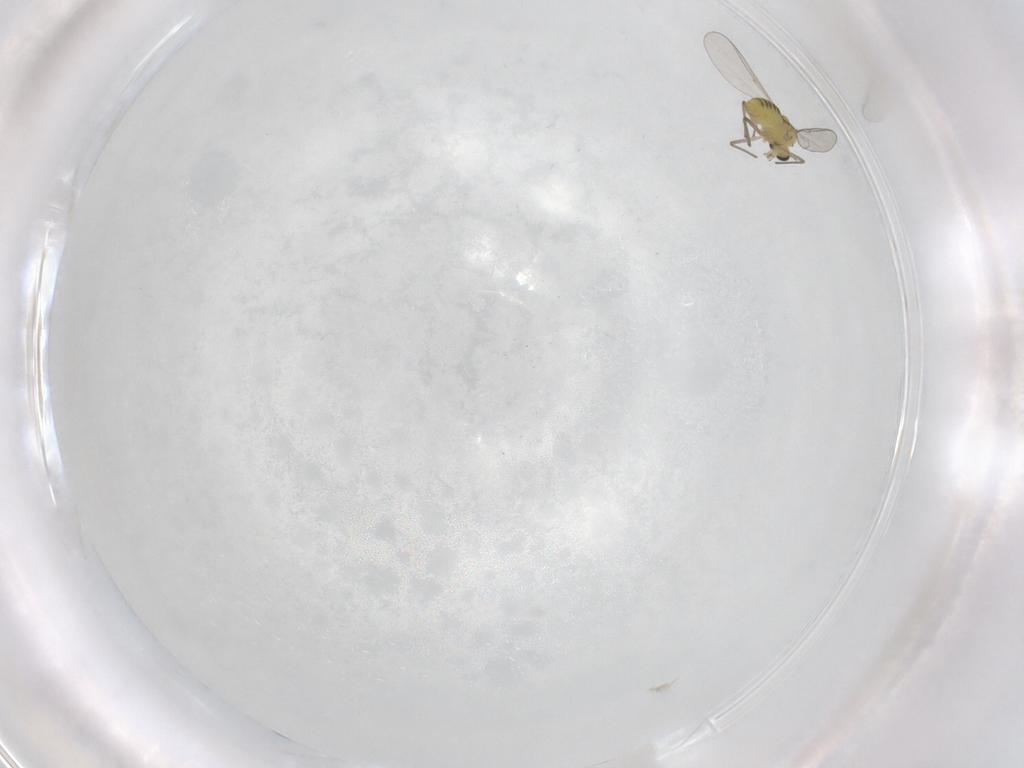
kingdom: Animalia
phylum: Arthropoda
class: Insecta
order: Diptera
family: Chironomidae
